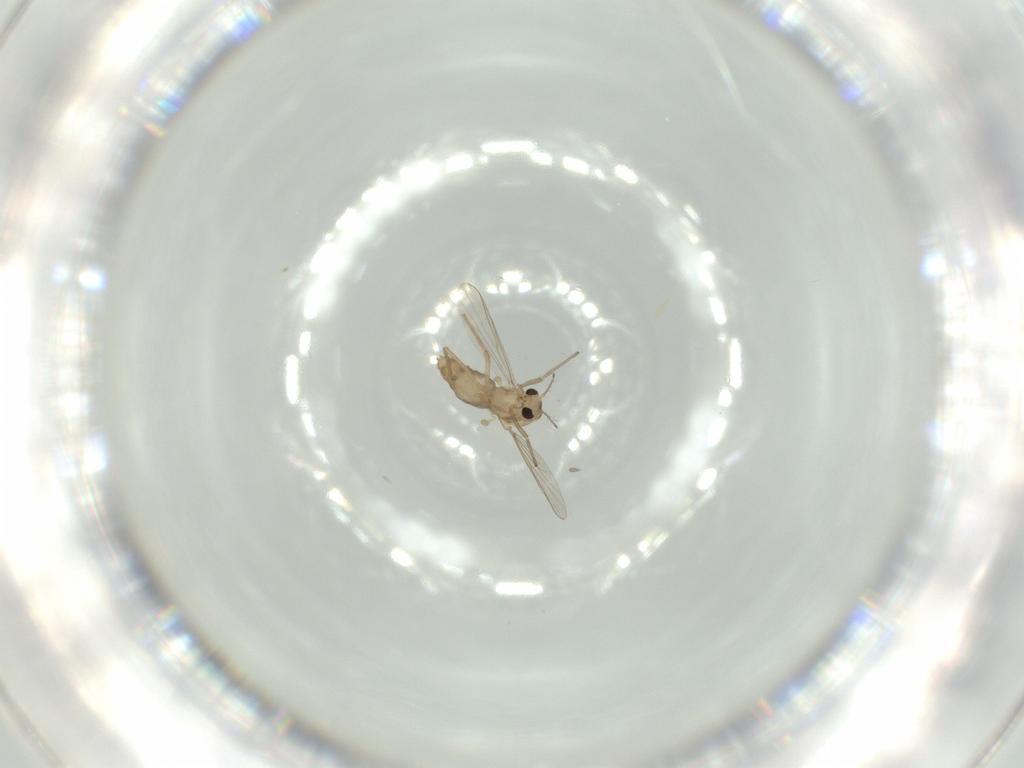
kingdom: Animalia
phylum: Arthropoda
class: Insecta
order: Diptera
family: Chironomidae
